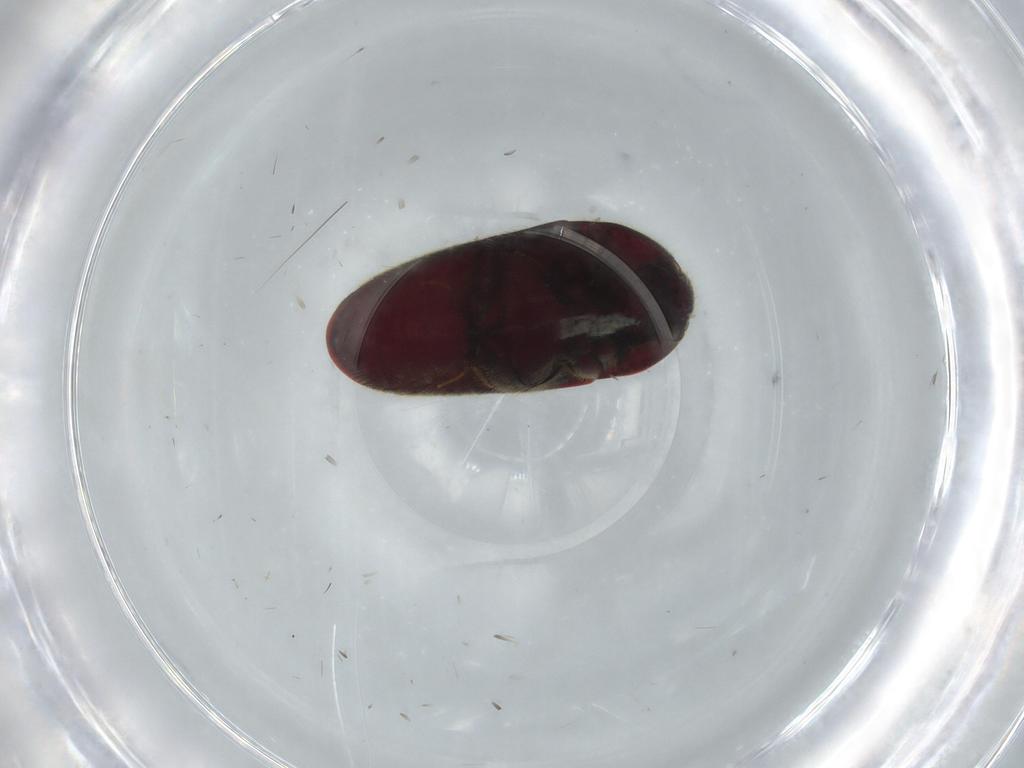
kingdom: Animalia
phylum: Arthropoda
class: Insecta
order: Coleoptera
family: Throscidae
